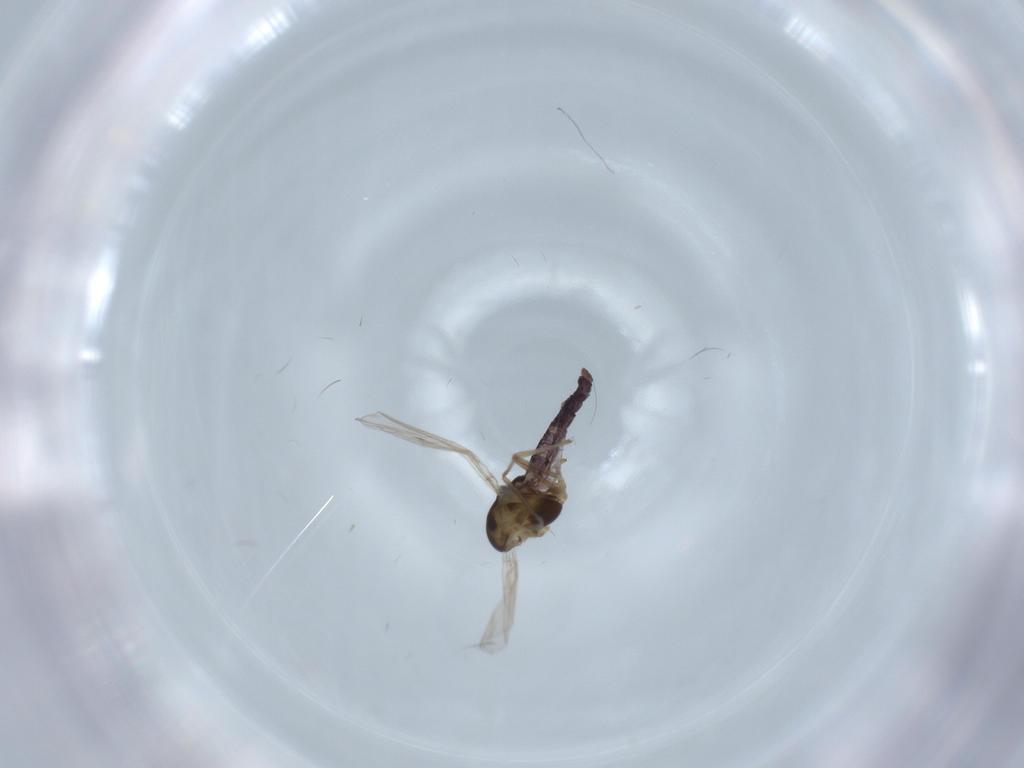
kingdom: Animalia
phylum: Arthropoda
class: Insecta
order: Diptera
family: Chironomidae
